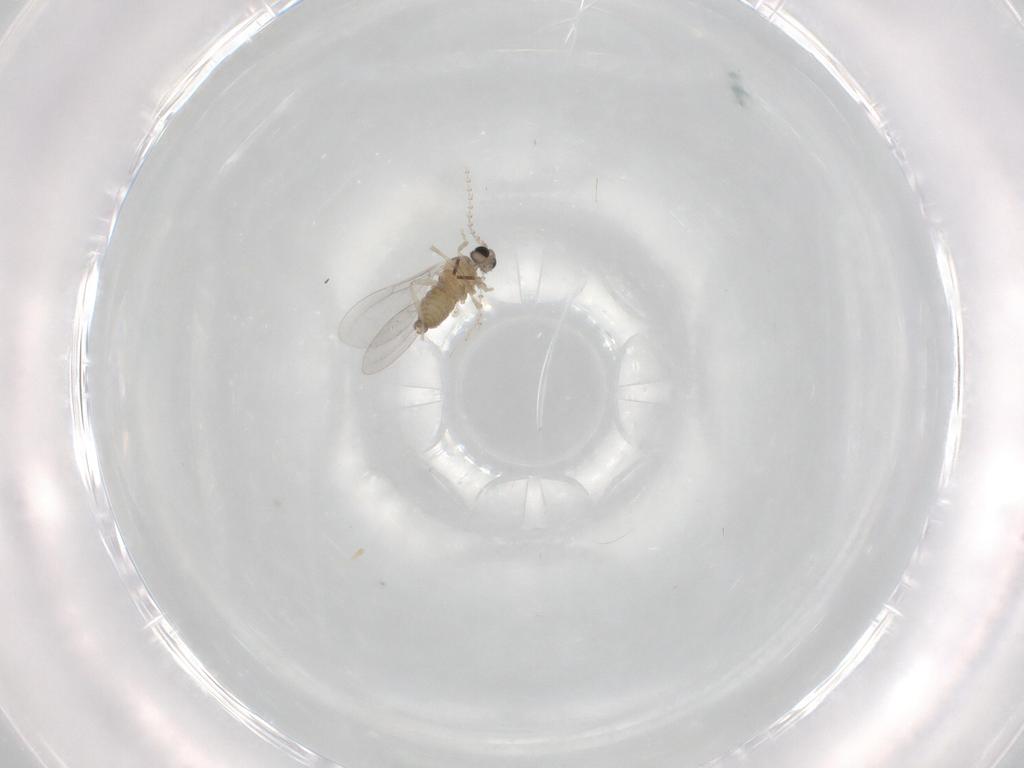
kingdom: Animalia
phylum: Arthropoda
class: Insecta
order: Diptera
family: Cecidomyiidae
